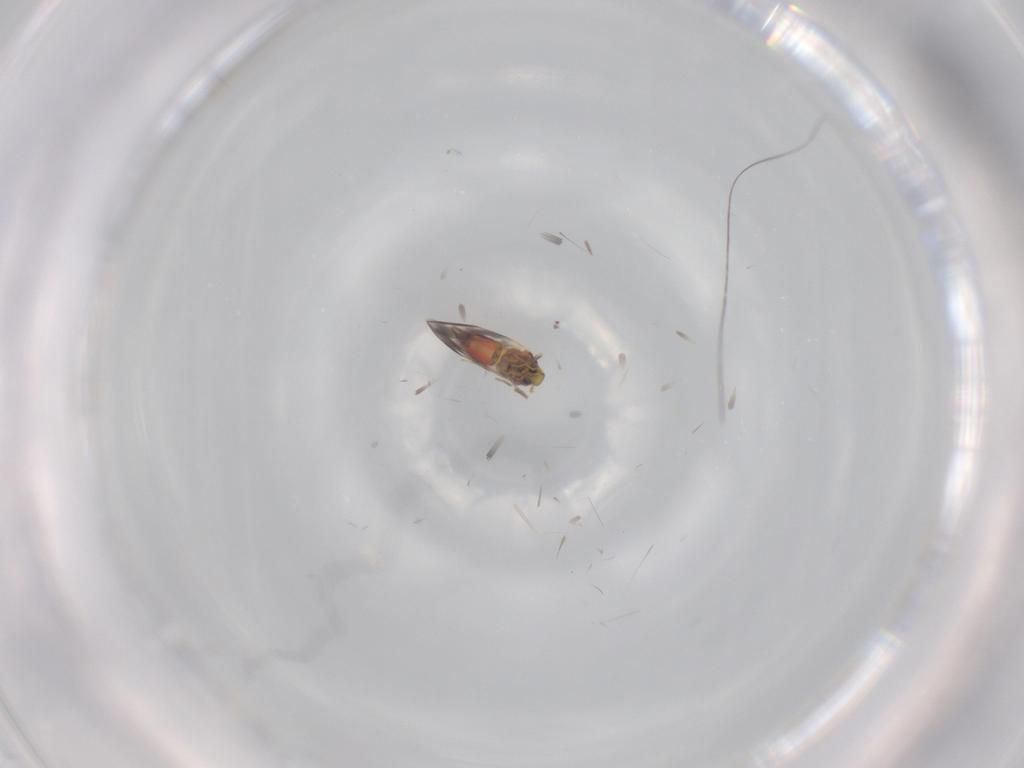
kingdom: Animalia
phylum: Arthropoda
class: Insecta
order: Hemiptera
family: Aleyrodidae
